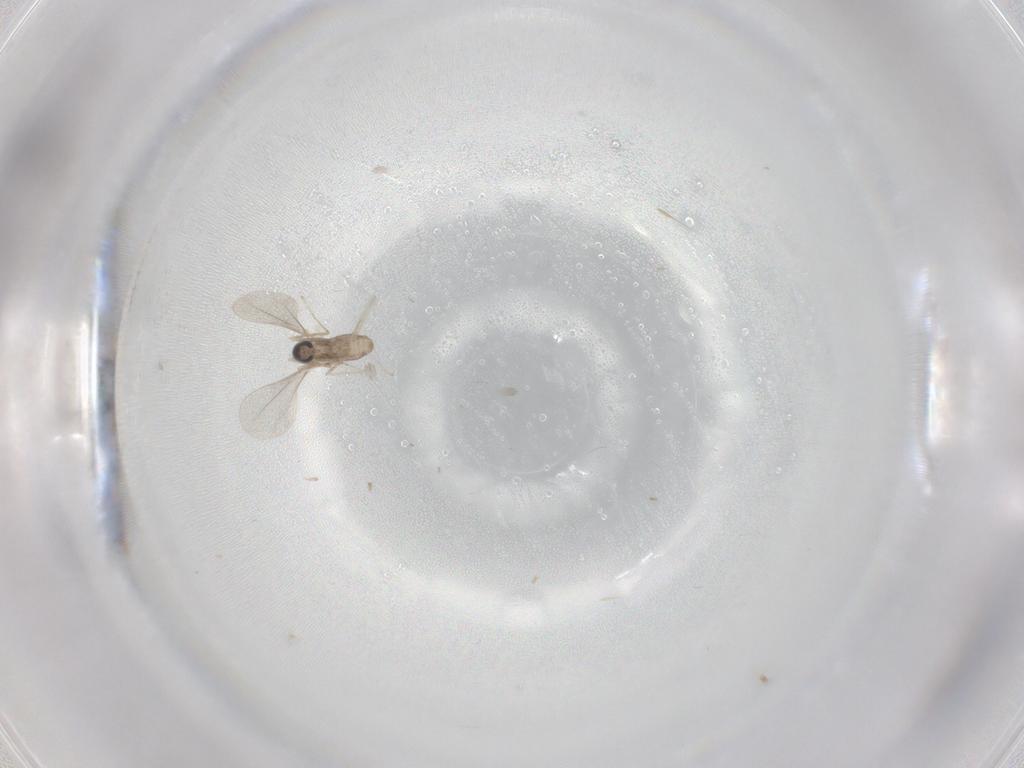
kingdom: Animalia
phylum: Arthropoda
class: Insecta
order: Diptera
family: Cecidomyiidae
